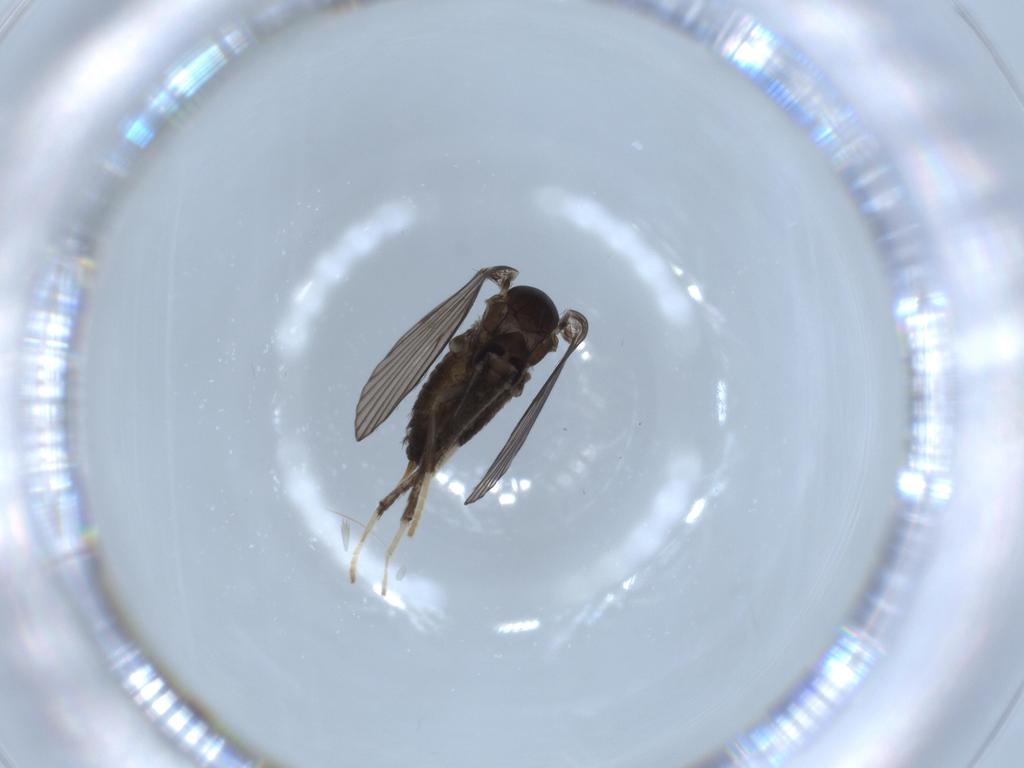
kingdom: Animalia
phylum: Arthropoda
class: Insecta
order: Diptera
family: Psychodidae
